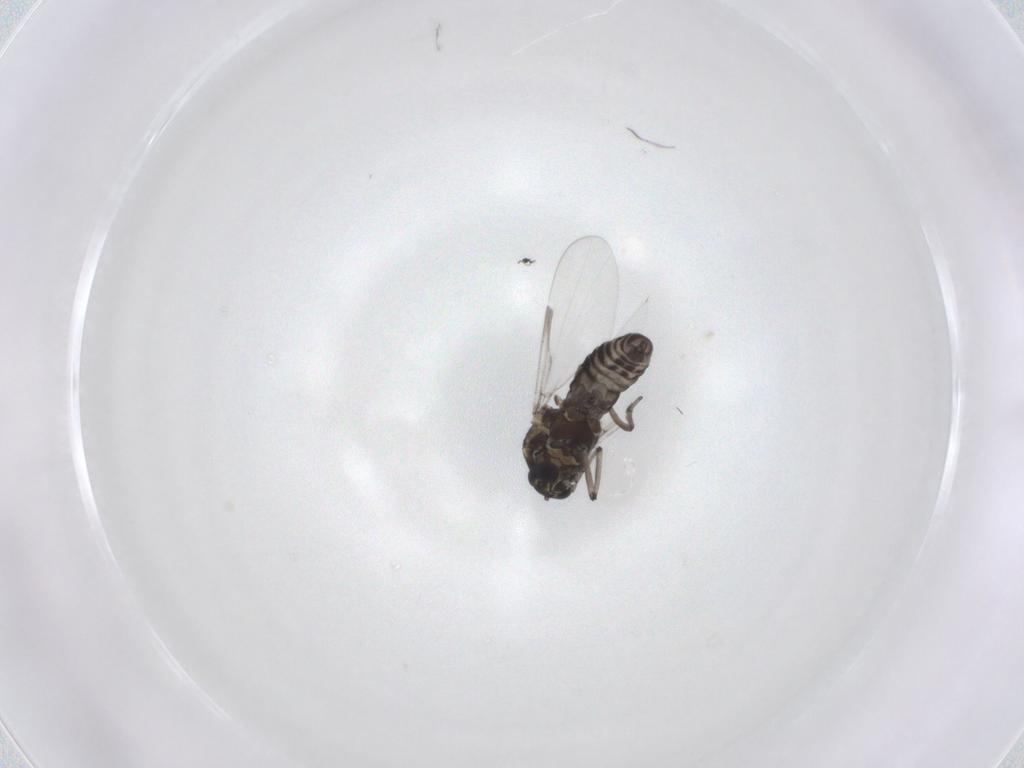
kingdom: Animalia
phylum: Arthropoda
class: Insecta
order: Diptera
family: Ceratopogonidae
